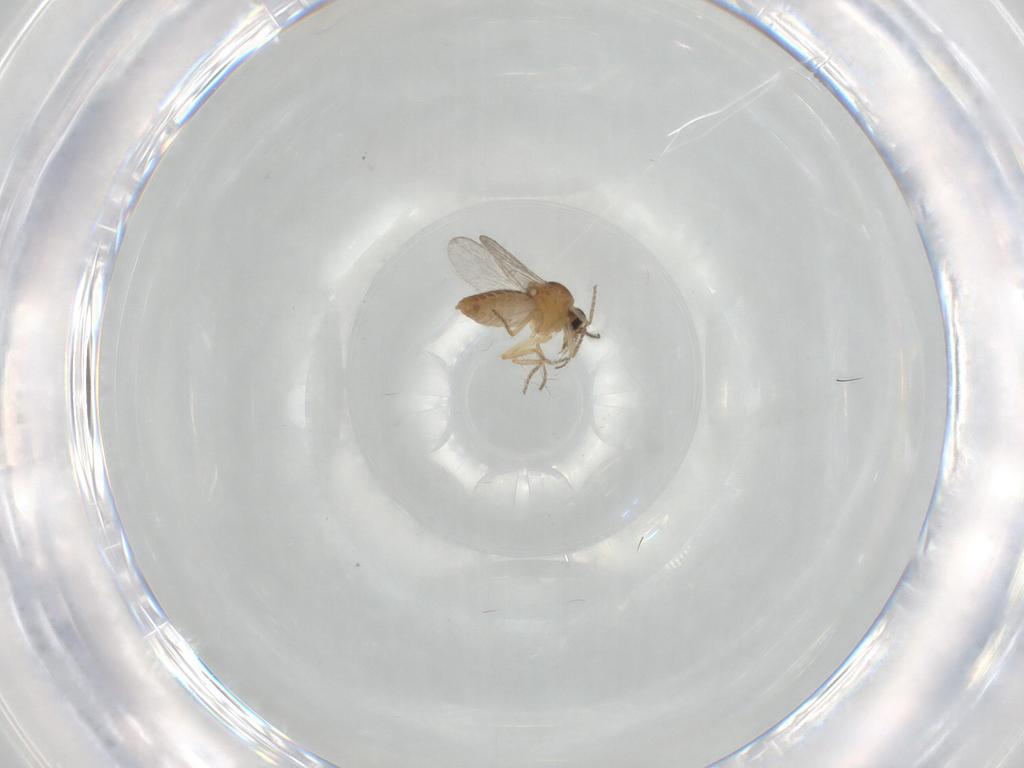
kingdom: Animalia
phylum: Arthropoda
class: Insecta
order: Diptera
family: Ceratopogonidae
